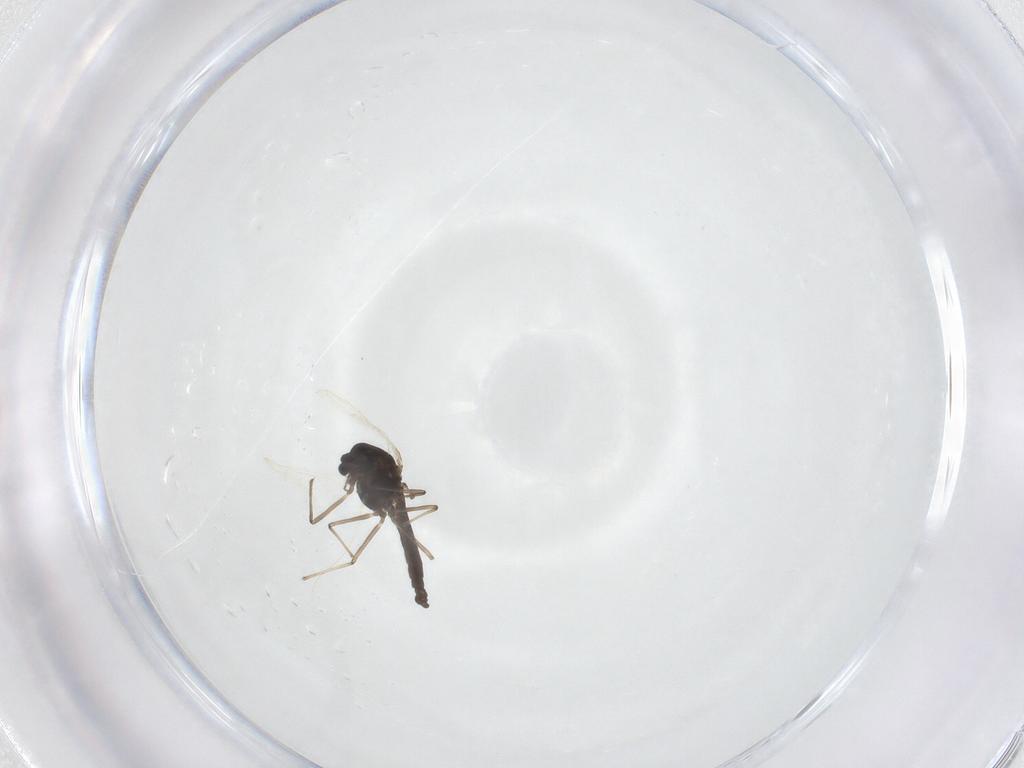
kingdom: Animalia
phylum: Arthropoda
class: Insecta
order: Diptera
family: Chironomidae
